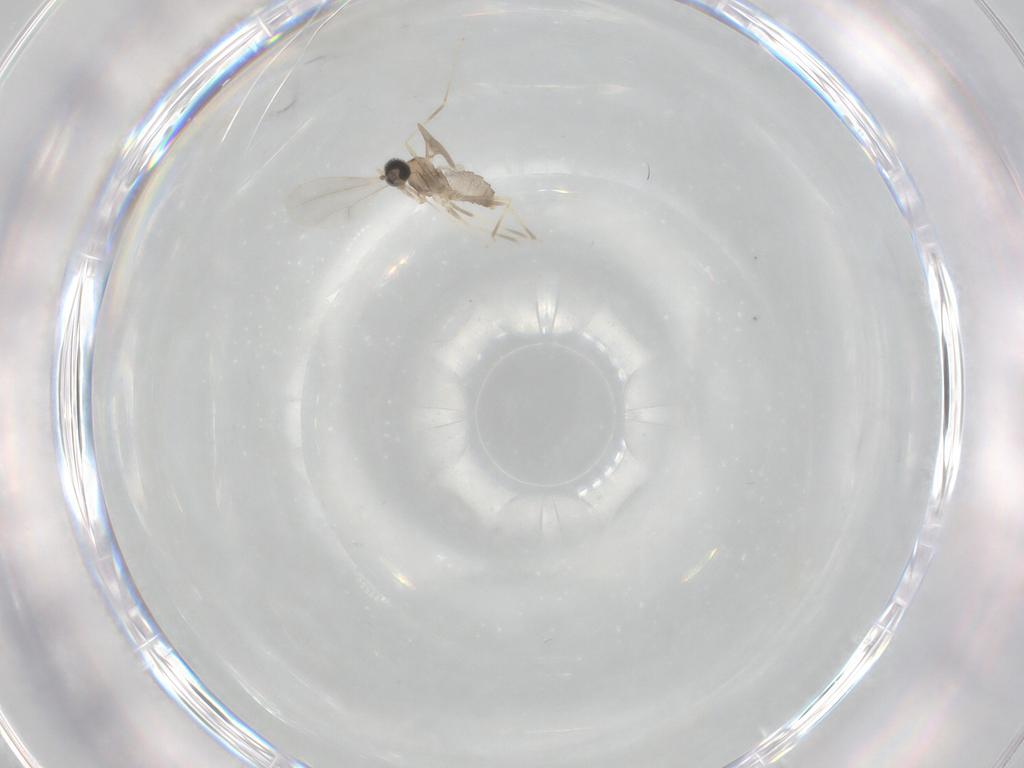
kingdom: Animalia
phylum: Arthropoda
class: Insecta
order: Diptera
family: Cecidomyiidae
